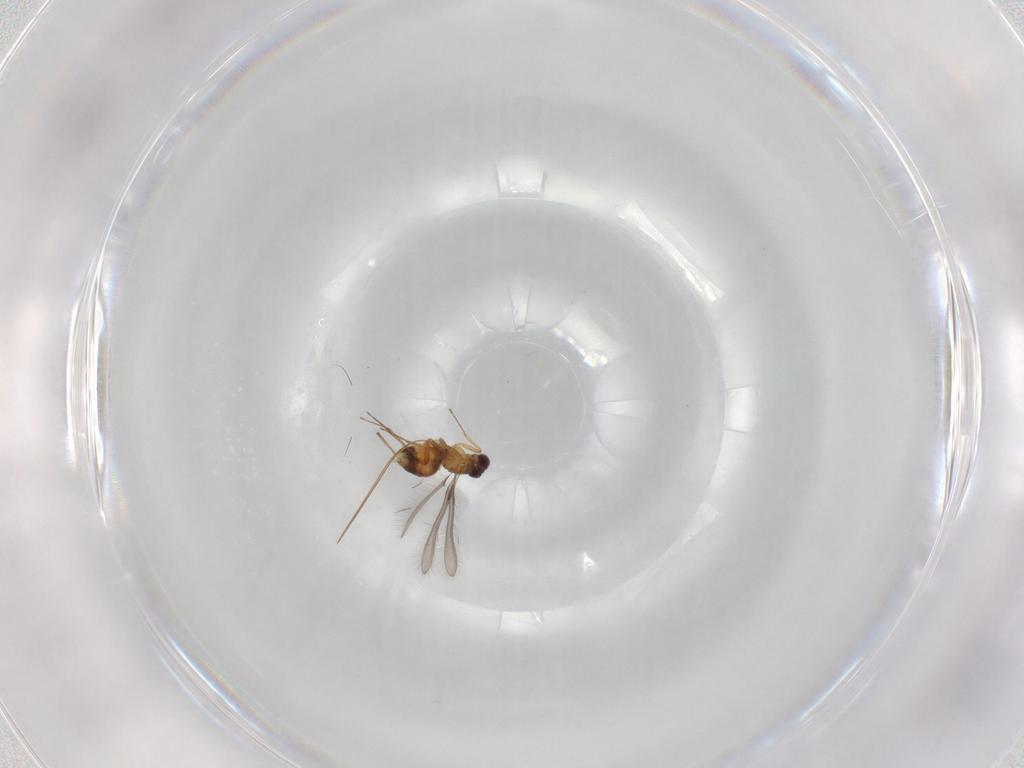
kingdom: Animalia
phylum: Arthropoda
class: Insecta
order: Hymenoptera
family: Mymaridae
